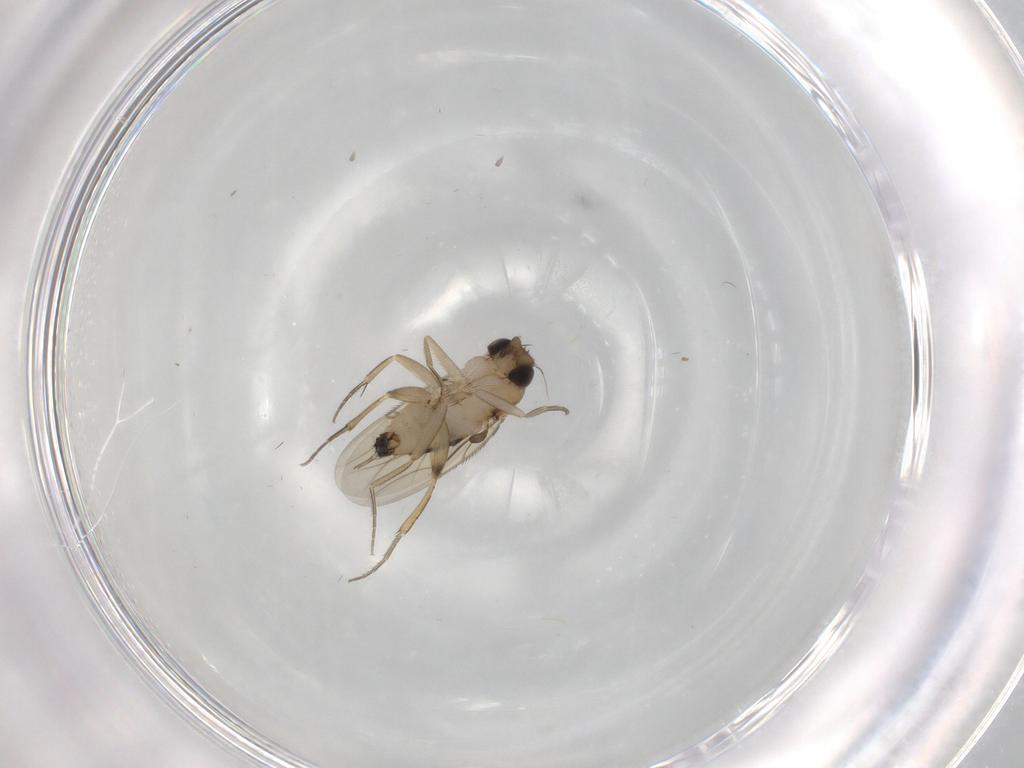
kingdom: Animalia
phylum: Arthropoda
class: Insecta
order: Diptera
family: Phoridae
